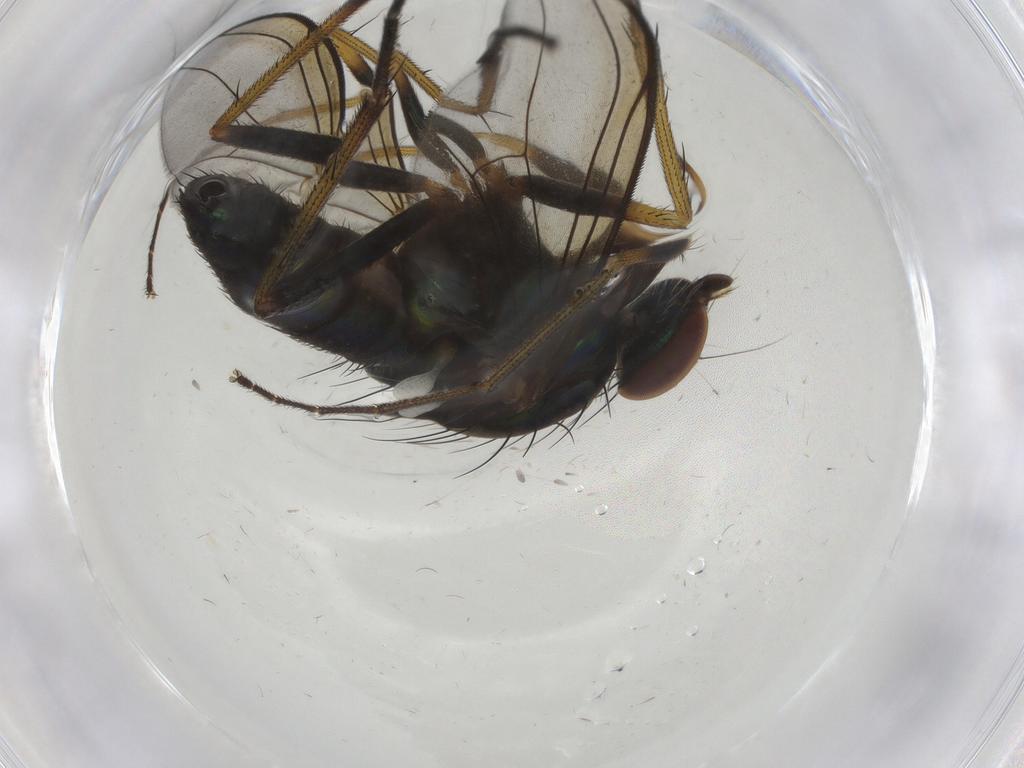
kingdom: Animalia
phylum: Arthropoda
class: Insecta
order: Diptera
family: Dolichopodidae
